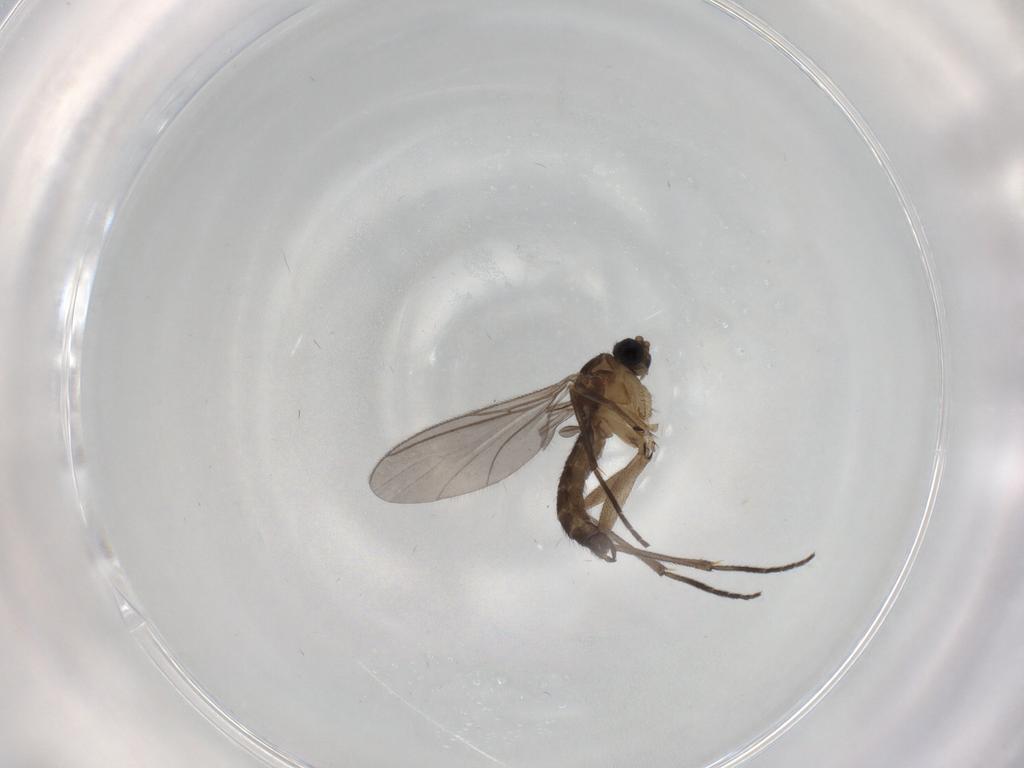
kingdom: Animalia
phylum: Arthropoda
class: Insecta
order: Diptera
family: Sciaridae
